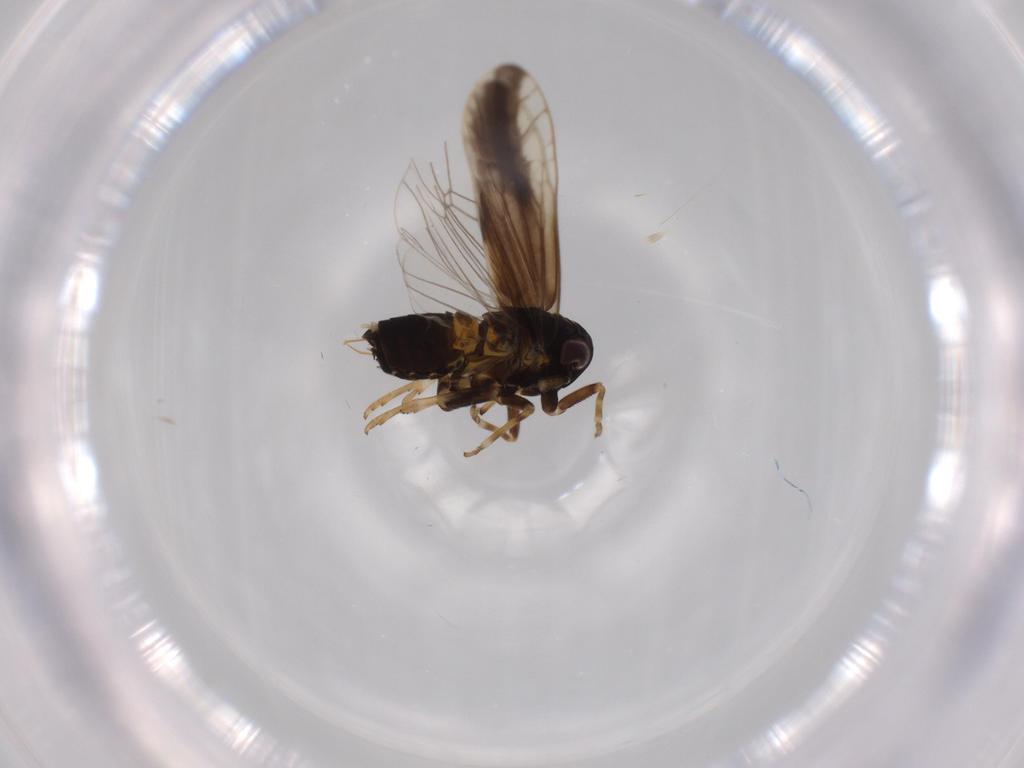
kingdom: Animalia
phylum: Arthropoda
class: Insecta
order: Hemiptera
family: Delphacidae
